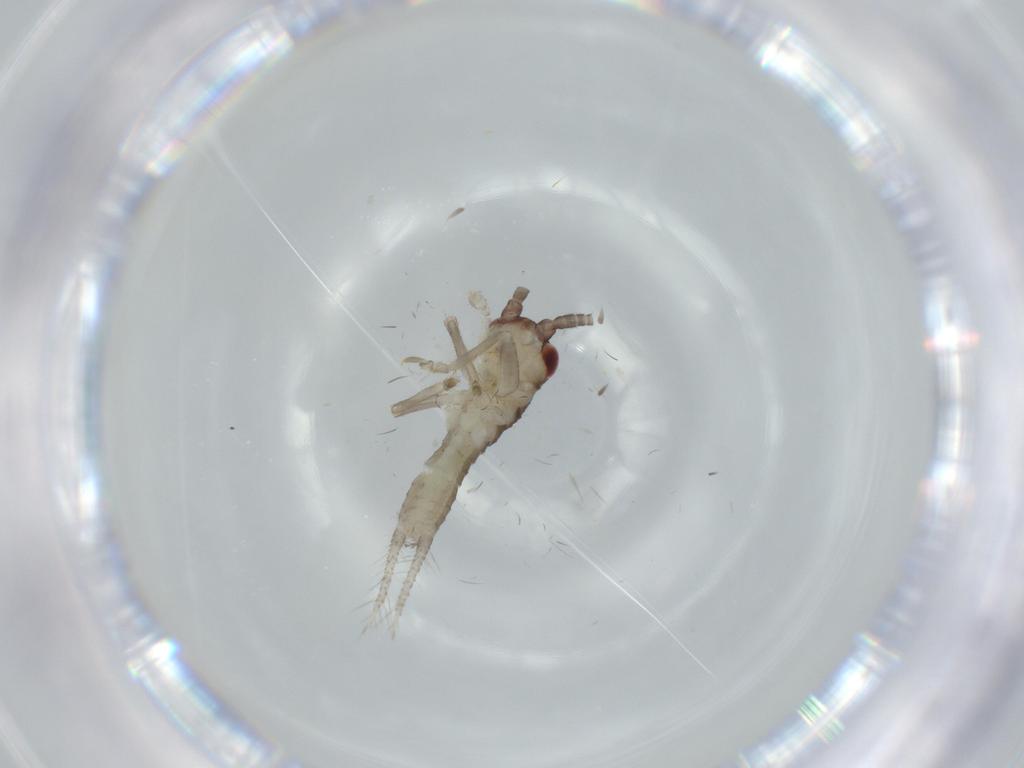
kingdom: Animalia
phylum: Arthropoda
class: Insecta
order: Orthoptera
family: Gryllidae
